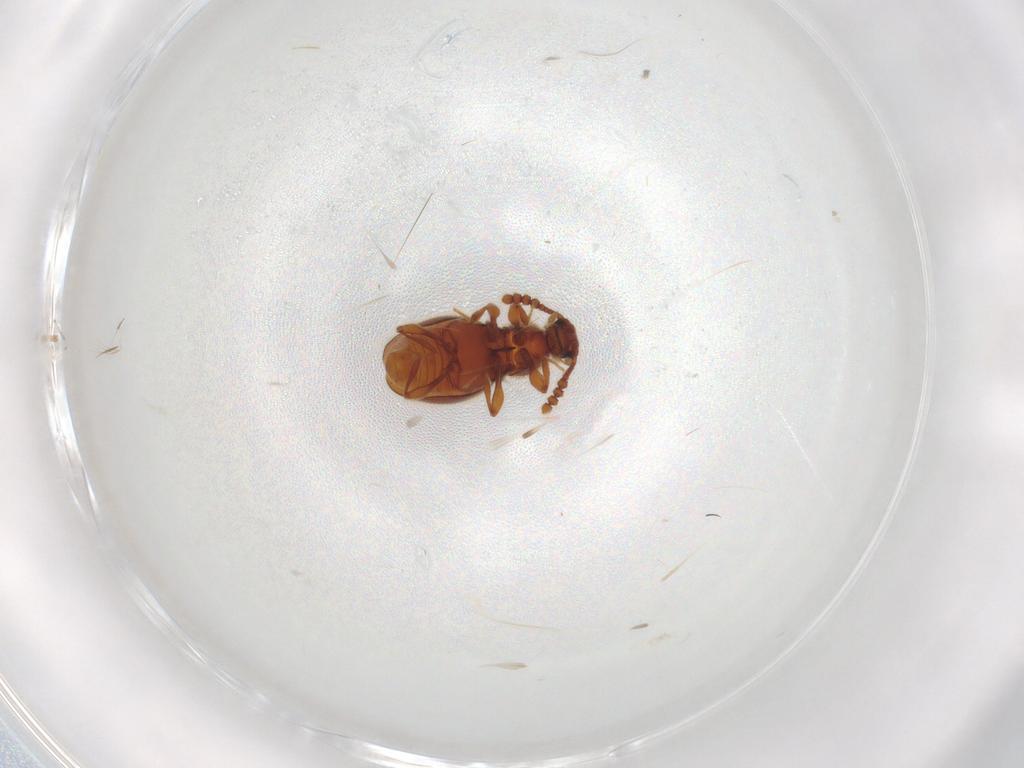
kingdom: Animalia
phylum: Arthropoda
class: Insecta
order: Coleoptera
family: Staphylinidae
